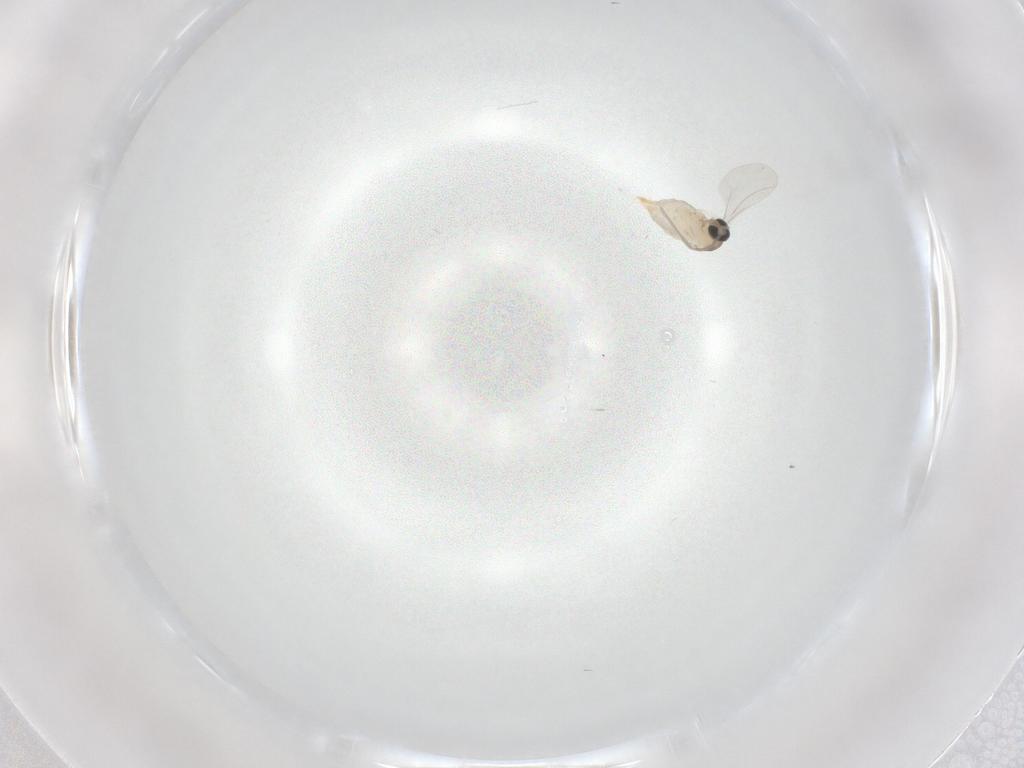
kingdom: Animalia
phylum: Arthropoda
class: Insecta
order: Diptera
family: Cecidomyiidae
